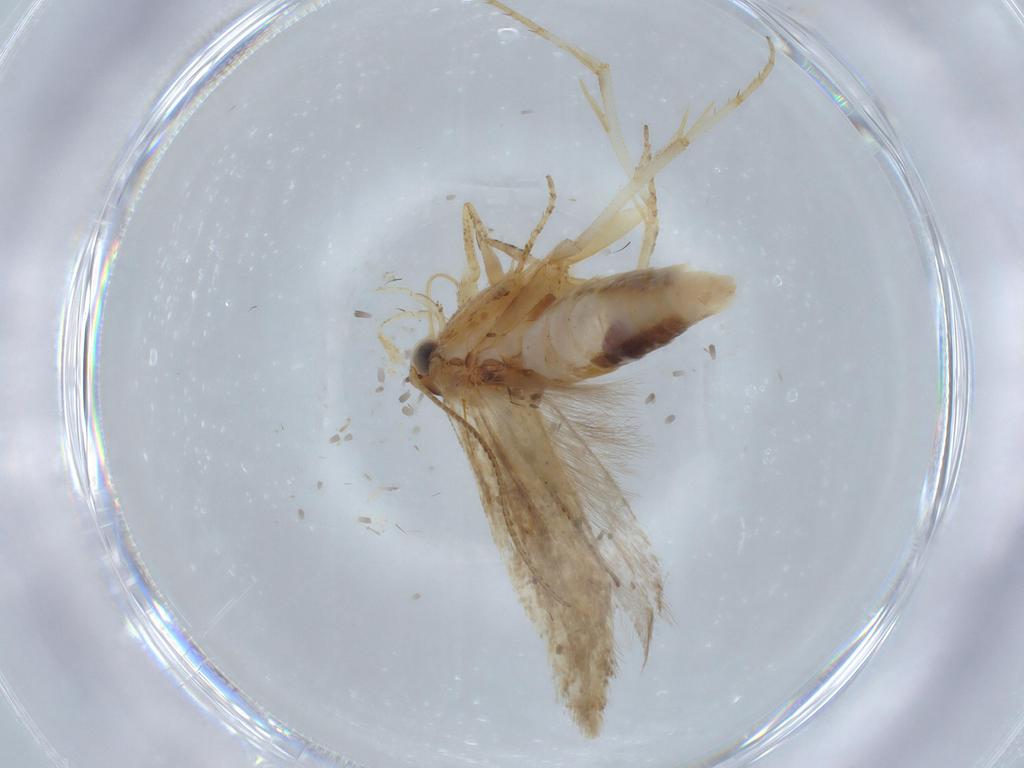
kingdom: Animalia
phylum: Arthropoda
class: Insecta
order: Lepidoptera
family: Gelechiidae
